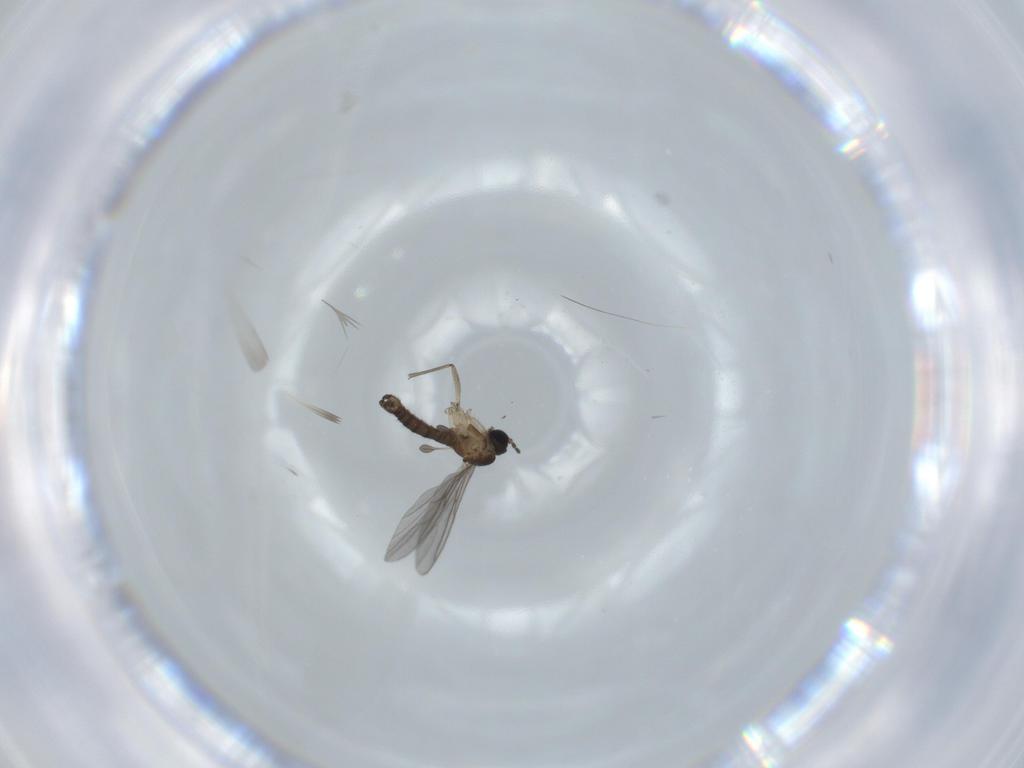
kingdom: Animalia
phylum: Arthropoda
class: Insecta
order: Diptera
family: Sciaridae
